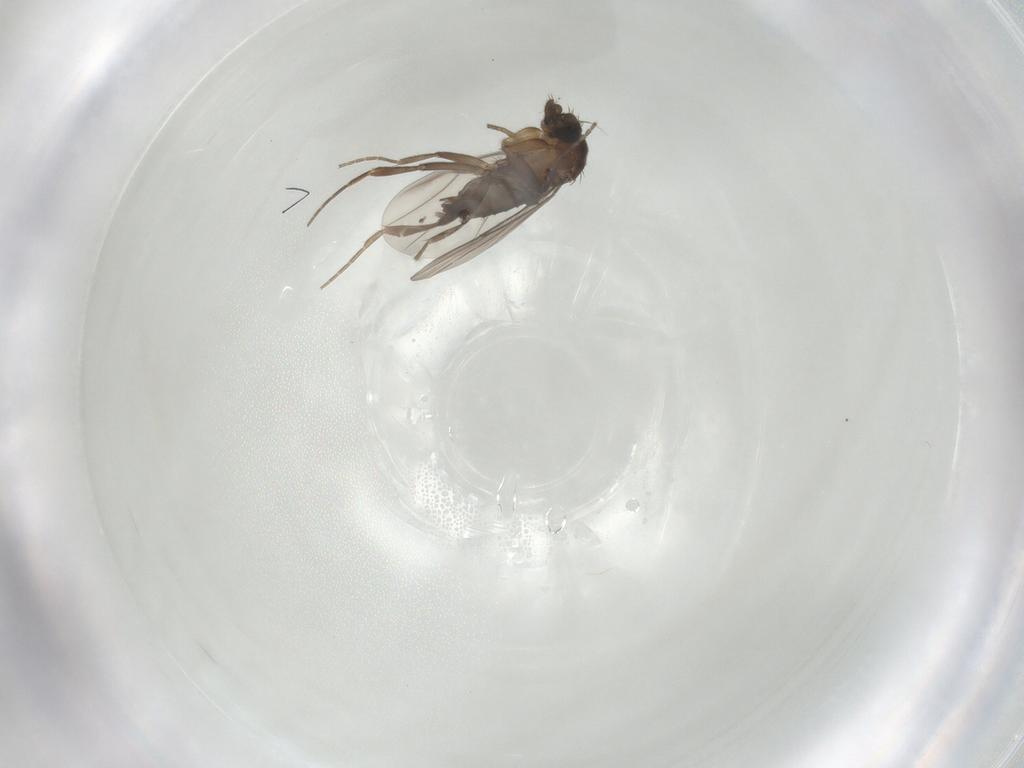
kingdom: Animalia
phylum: Arthropoda
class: Insecta
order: Diptera
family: Phoridae
